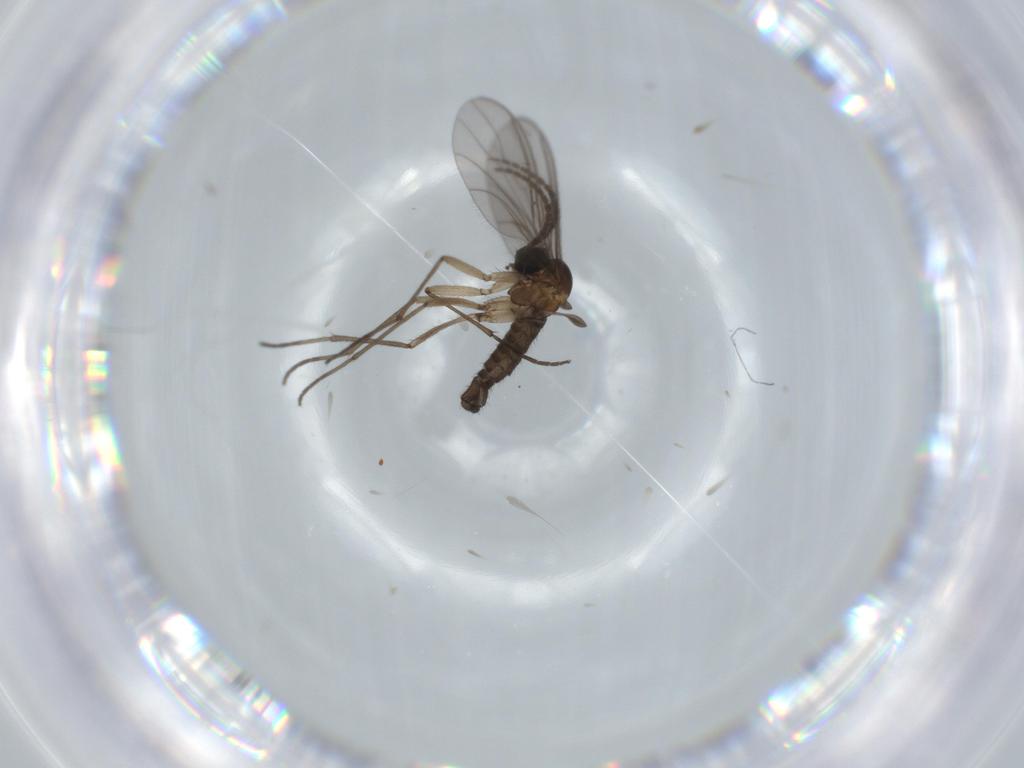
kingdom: Animalia
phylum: Arthropoda
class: Insecta
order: Diptera
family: Sciaridae
